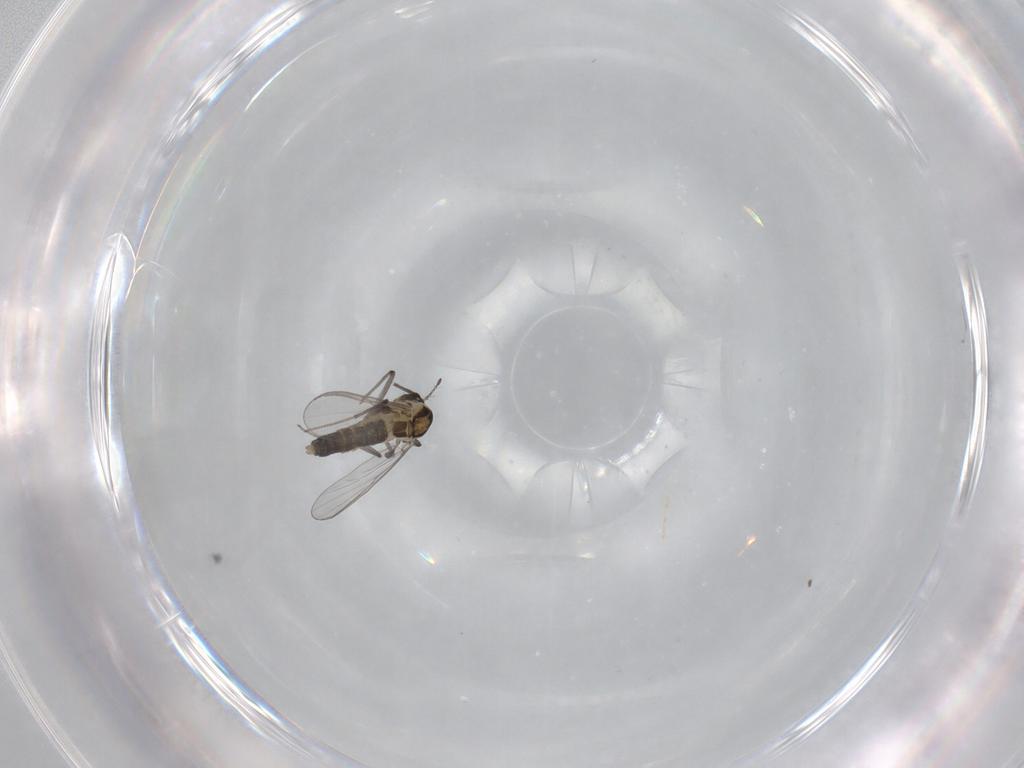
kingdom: Animalia
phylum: Arthropoda
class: Insecta
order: Diptera
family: Chironomidae
